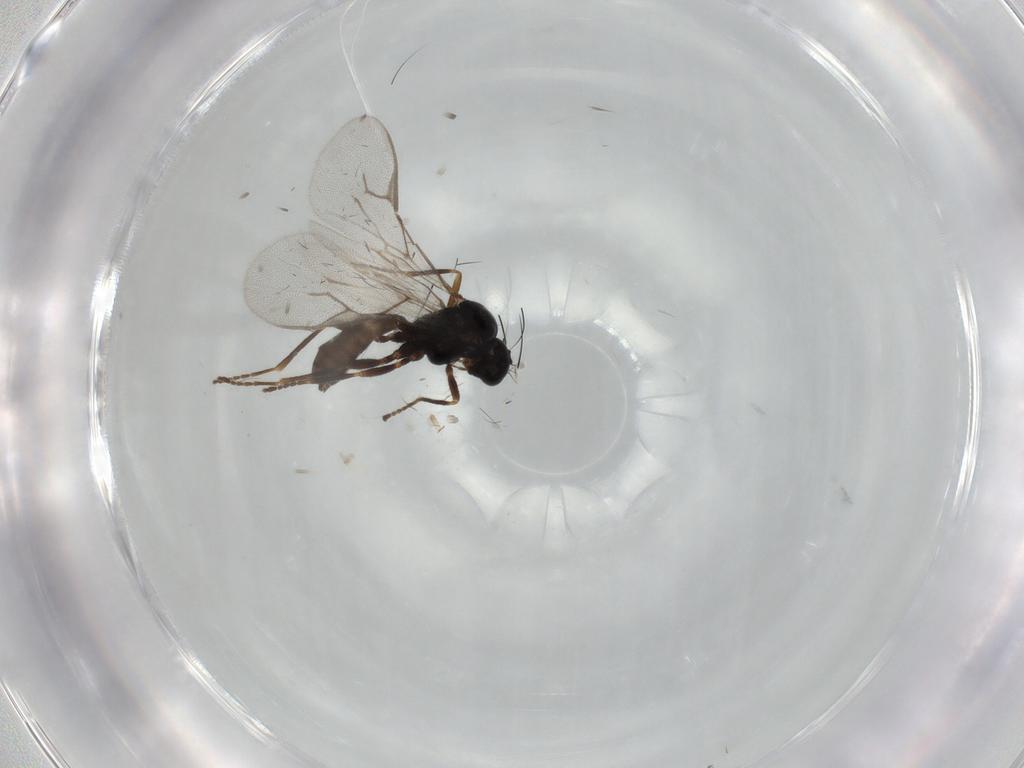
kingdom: Animalia
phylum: Arthropoda
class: Insecta
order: Hymenoptera
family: Braconidae
